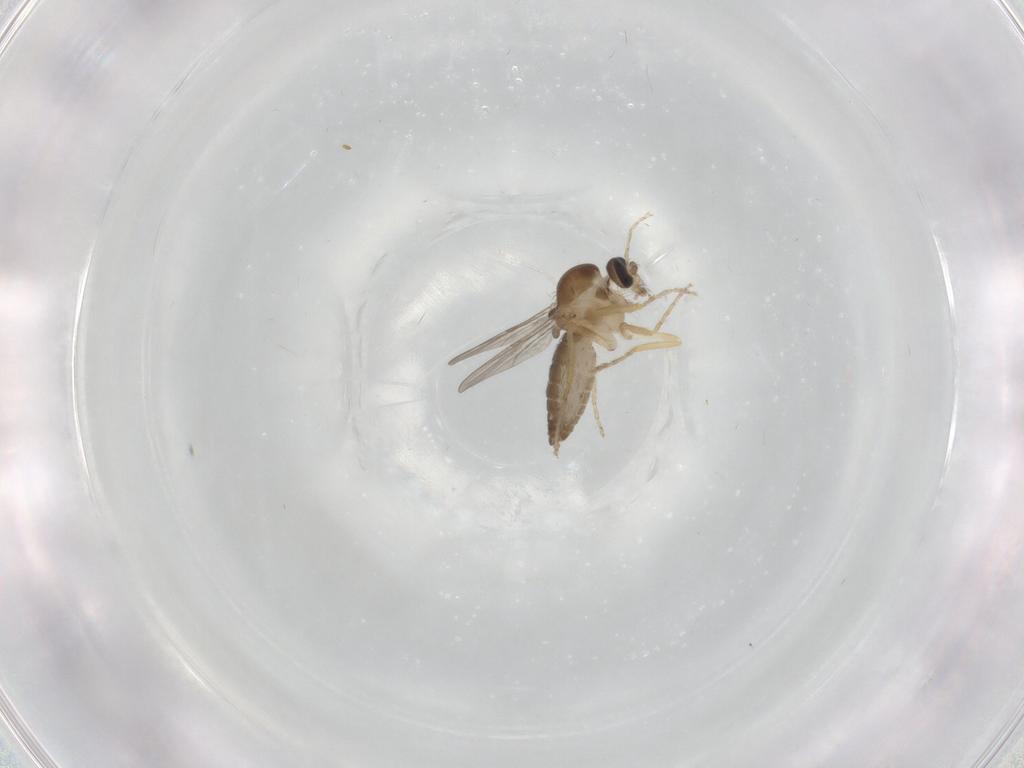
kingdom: Animalia
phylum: Arthropoda
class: Insecta
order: Diptera
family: Ceratopogonidae
